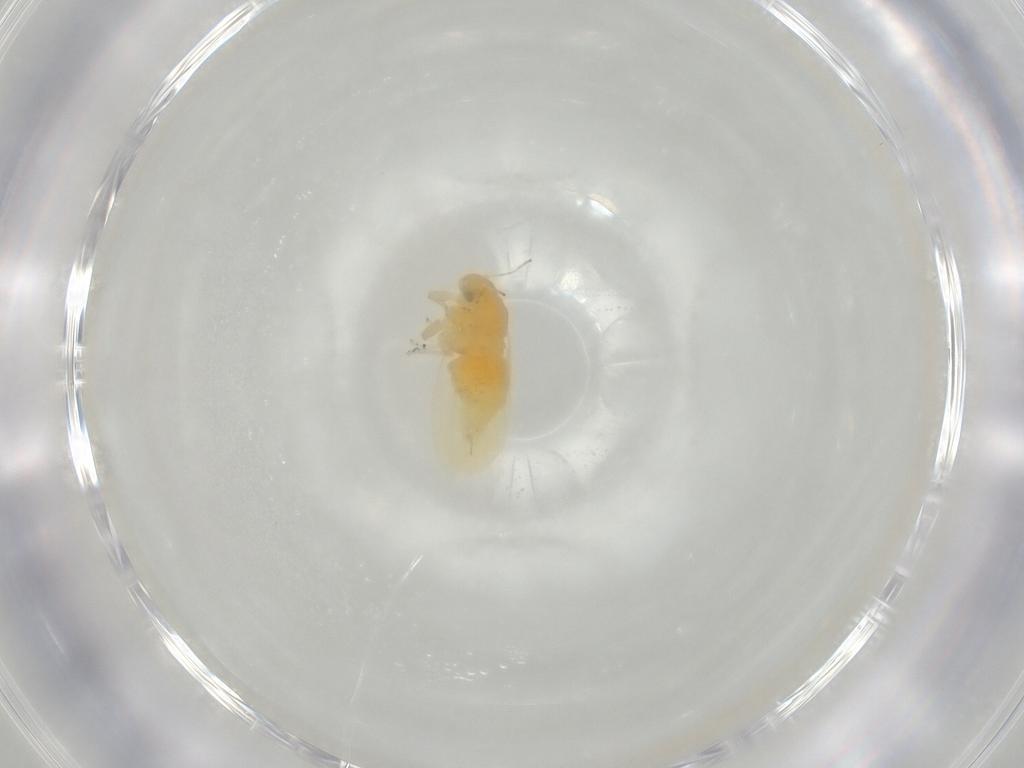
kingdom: Animalia
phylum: Arthropoda
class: Insecta
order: Hemiptera
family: Liviidae
